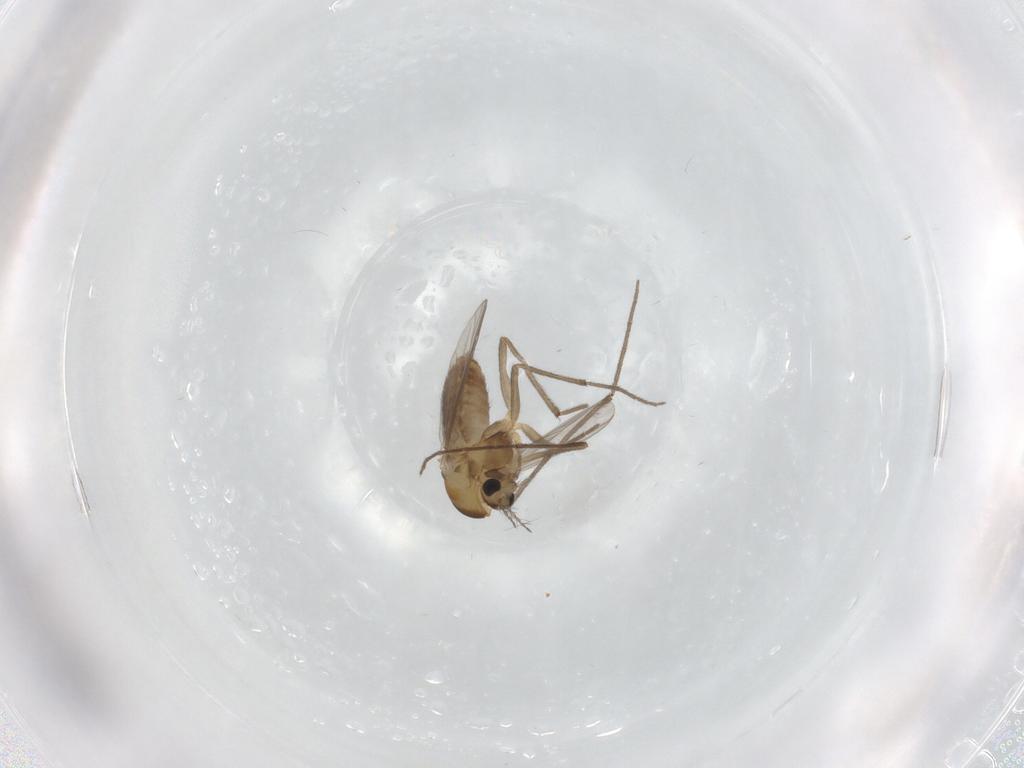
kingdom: Animalia
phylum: Arthropoda
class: Insecta
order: Diptera
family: Chironomidae
